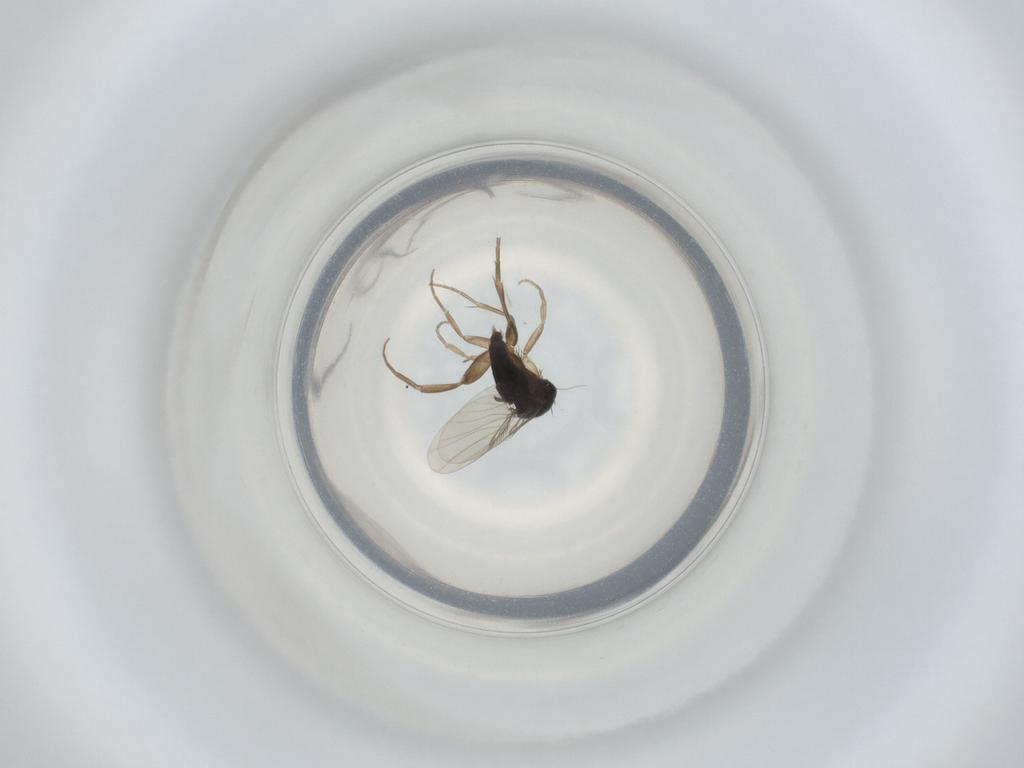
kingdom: Animalia
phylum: Arthropoda
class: Insecta
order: Diptera
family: Phoridae
